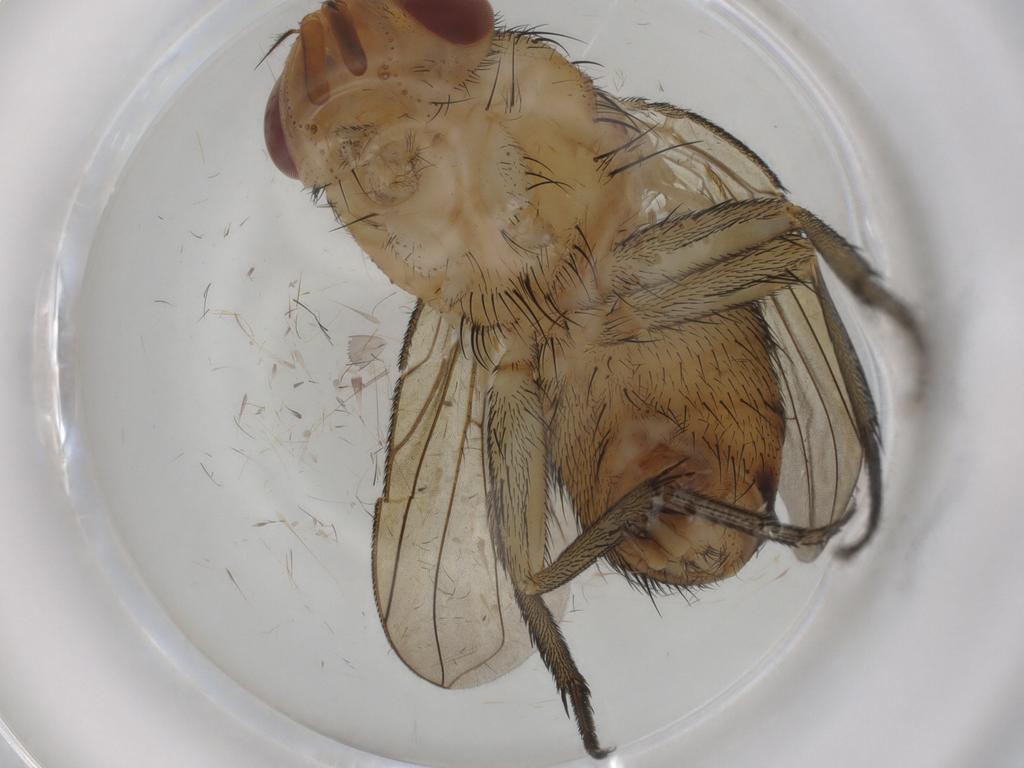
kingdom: Animalia
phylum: Arthropoda
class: Insecta
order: Diptera
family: Chironomidae
